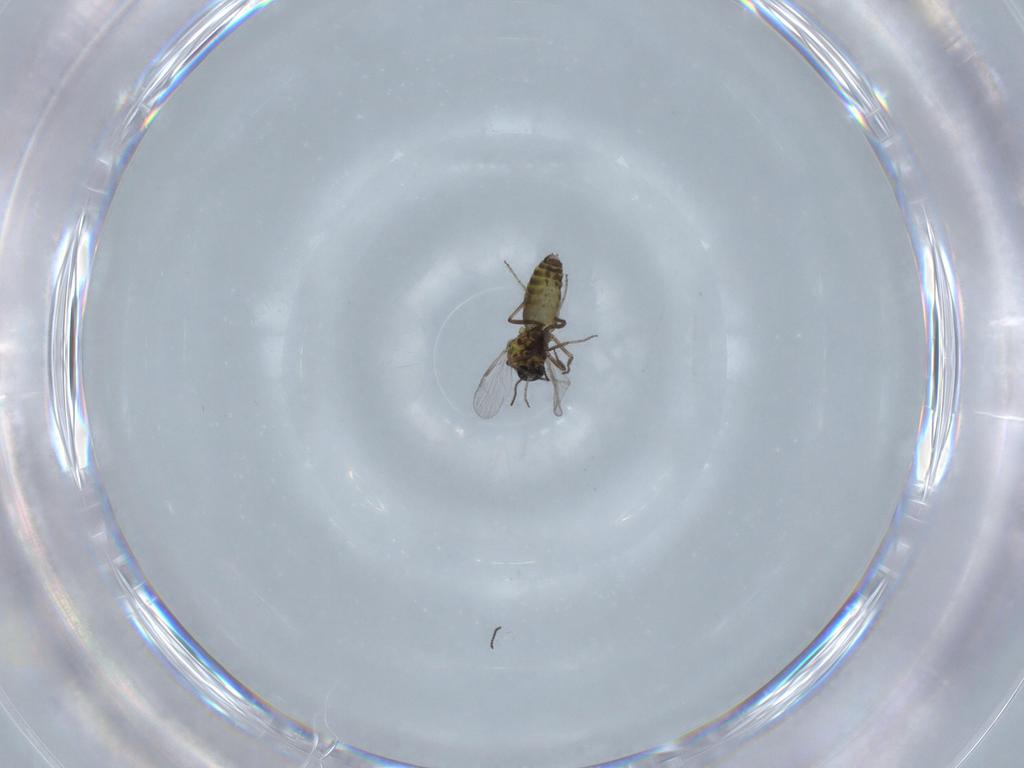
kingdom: Animalia
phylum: Arthropoda
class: Insecta
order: Diptera
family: Ceratopogonidae
